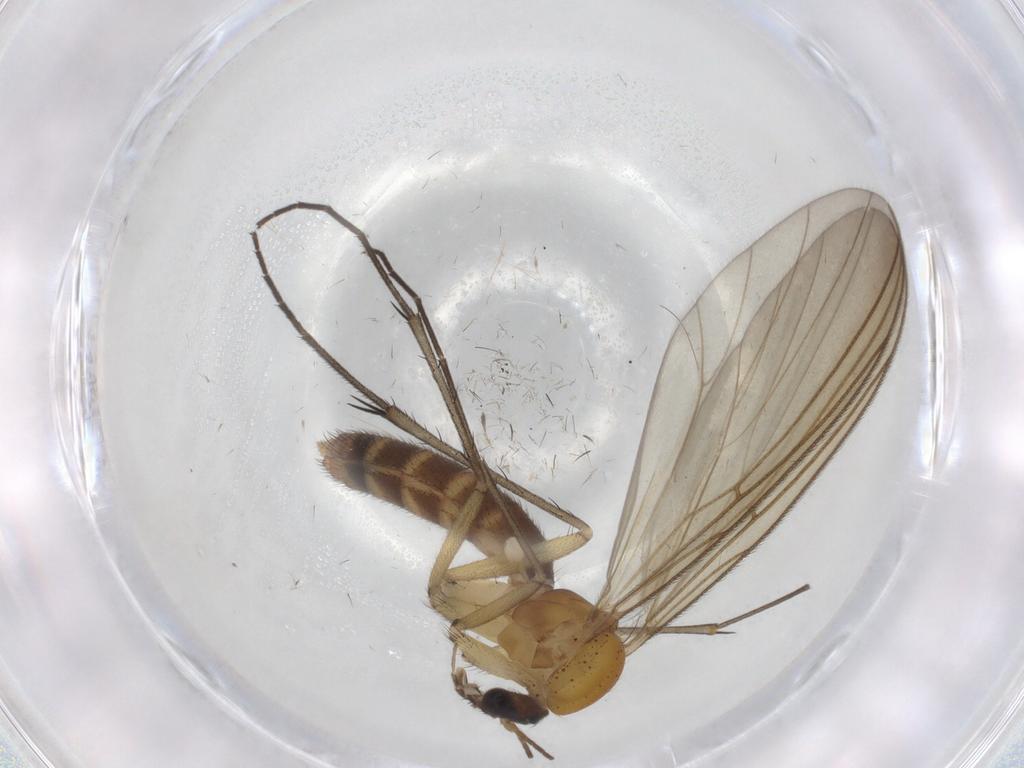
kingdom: Animalia
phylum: Arthropoda
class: Insecta
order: Diptera
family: Mycetophilidae
